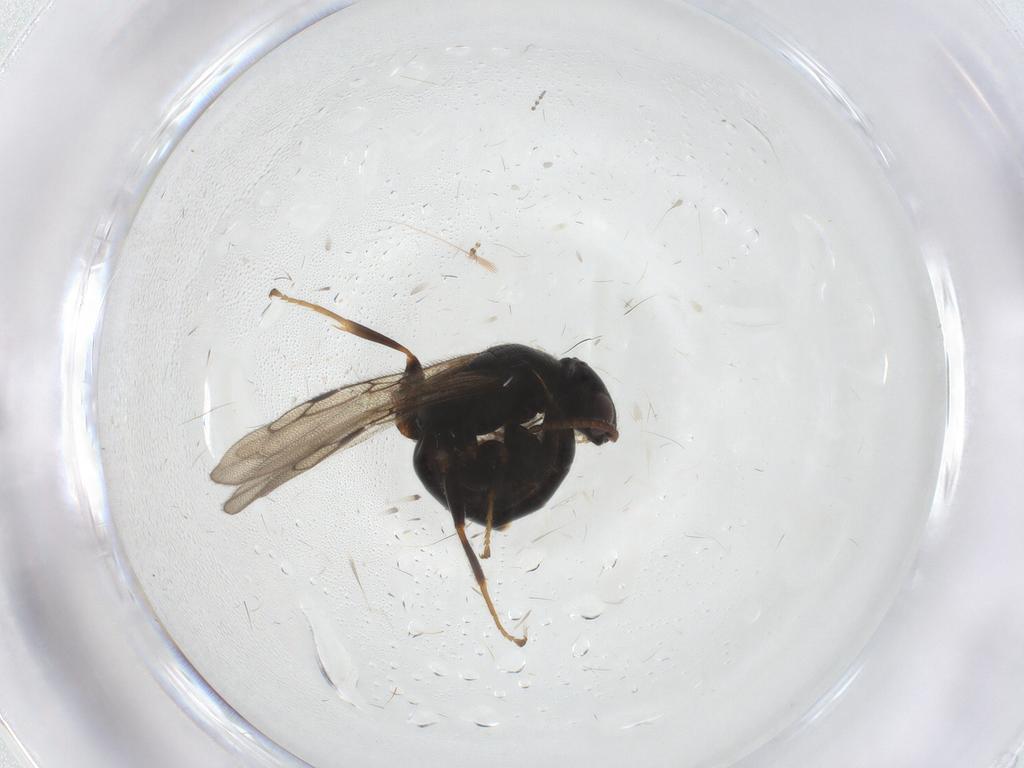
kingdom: Animalia
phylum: Arthropoda
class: Insecta
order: Hymenoptera
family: Bethylidae
